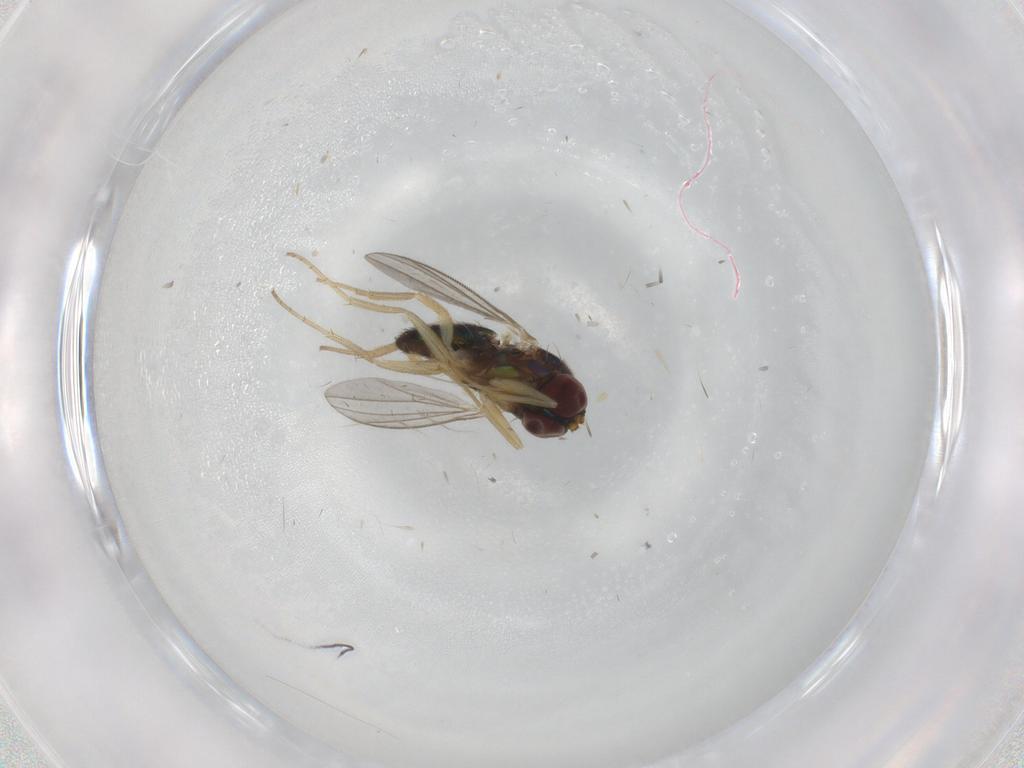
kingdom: Animalia
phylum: Arthropoda
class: Insecta
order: Diptera
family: Dolichopodidae
